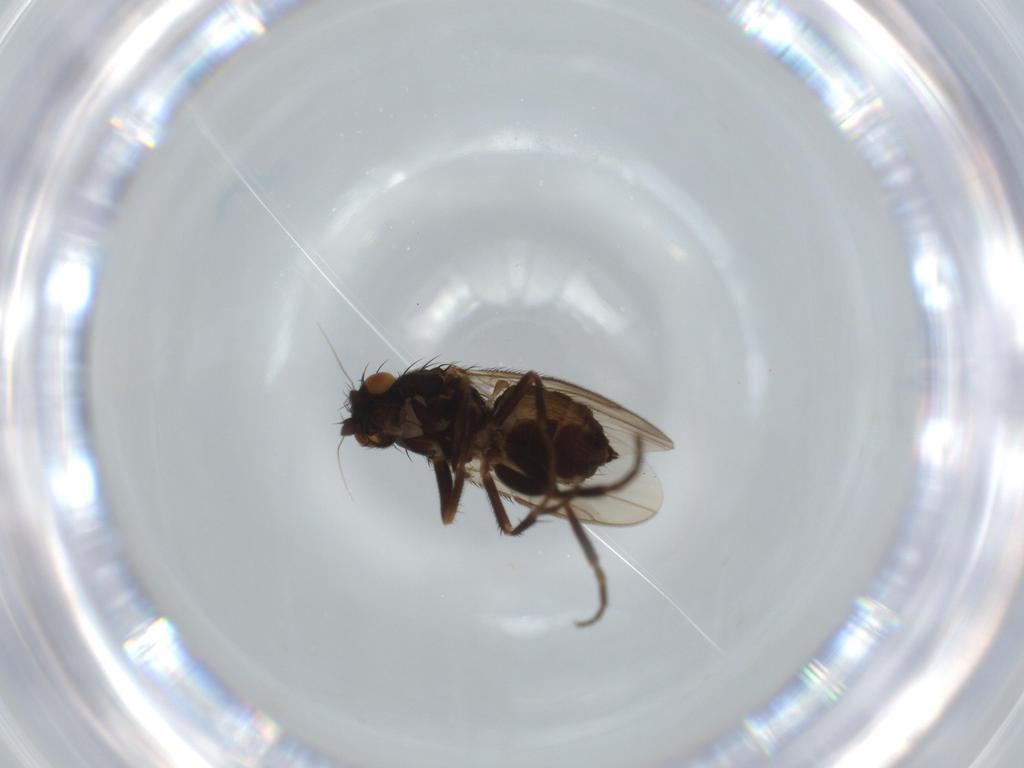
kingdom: Animalia
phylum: Arthropoda
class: Insecta
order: Diptera
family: Sphaeroceridae
